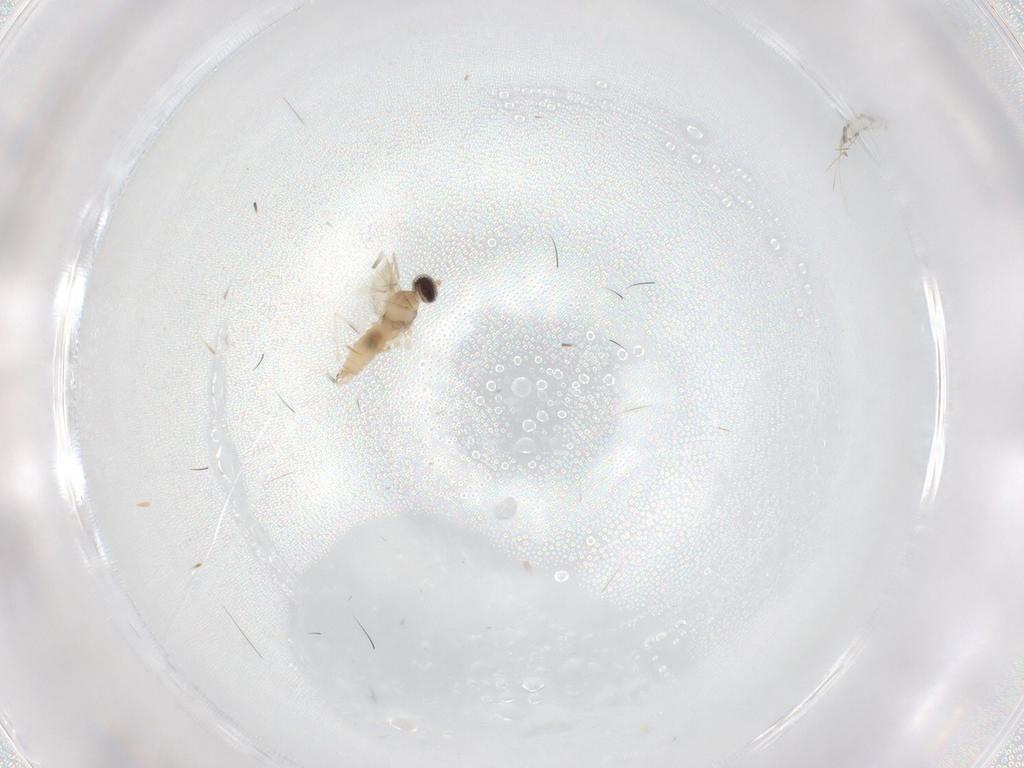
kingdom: Animalia
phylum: Arthropoda
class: Insecta
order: Diptera
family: Cecidomyiidae
